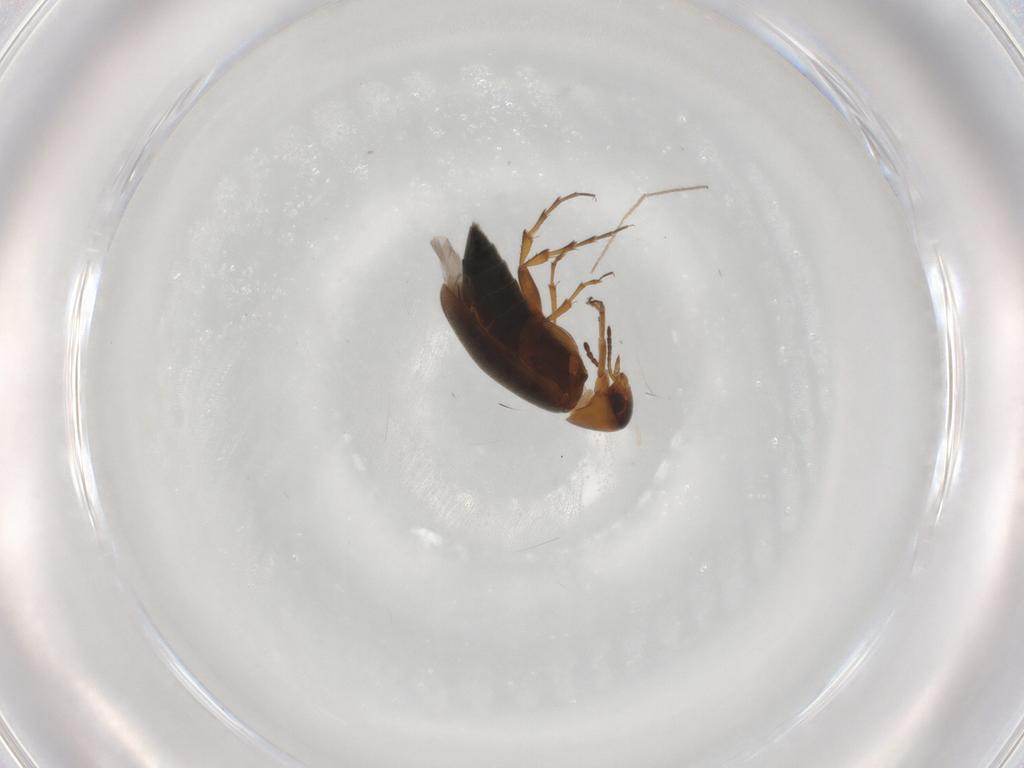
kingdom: Animalia
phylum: Arthropoda
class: Insecta
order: Coleoptera
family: Scraptiidae
